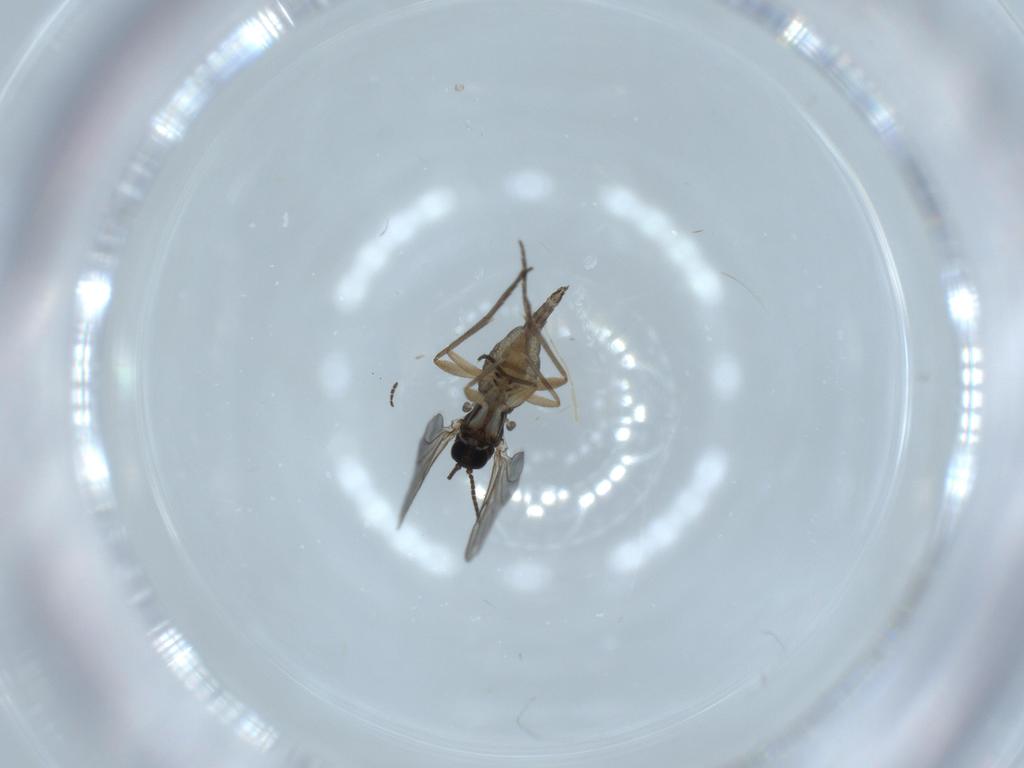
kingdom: Animalia
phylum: Arthropoda
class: Insecta
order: Diptera
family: Sciaridae
